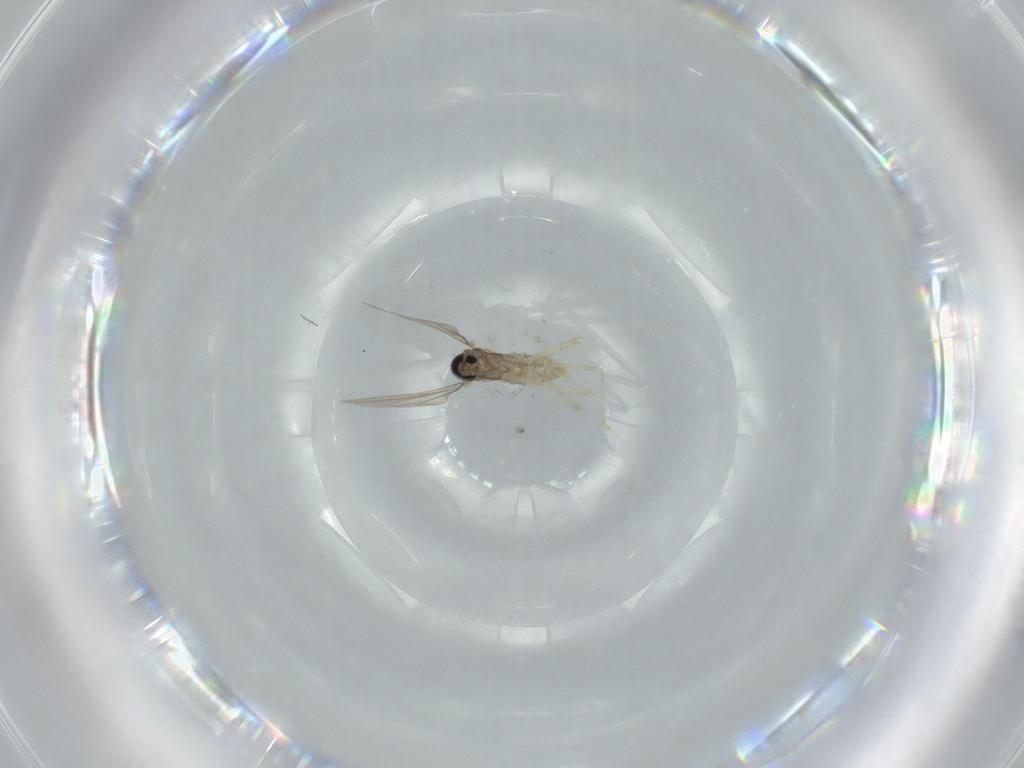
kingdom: Animalia
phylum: Arthropoda
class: Insecta
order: Diptera
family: Cecidomyiidae
